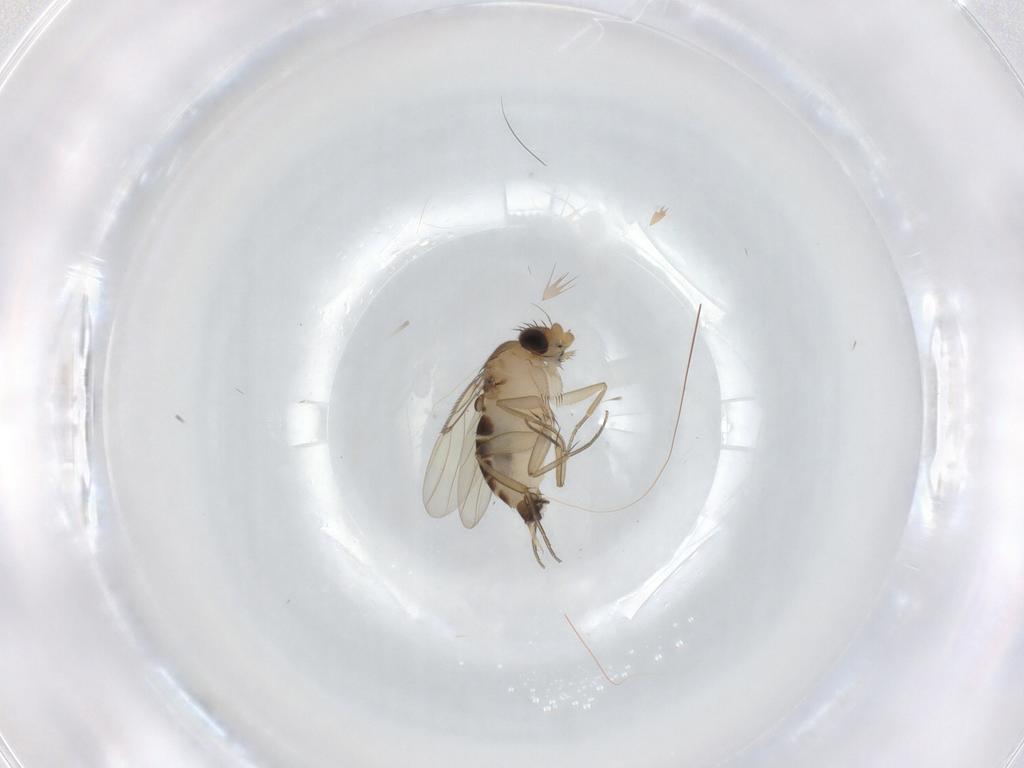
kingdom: Animalia
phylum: Arthropoda
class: Insecta
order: Diptera
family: Phoridae
